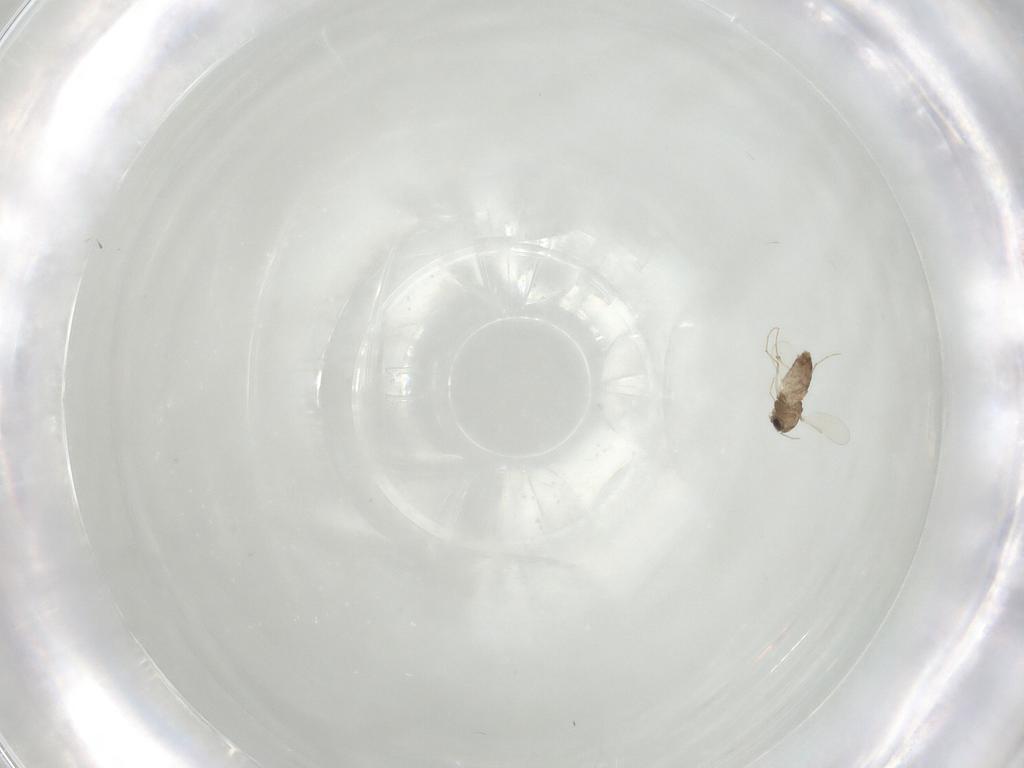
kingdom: Animalia
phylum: Arthropoda
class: Insecta
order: Diptera
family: Chironomidae
